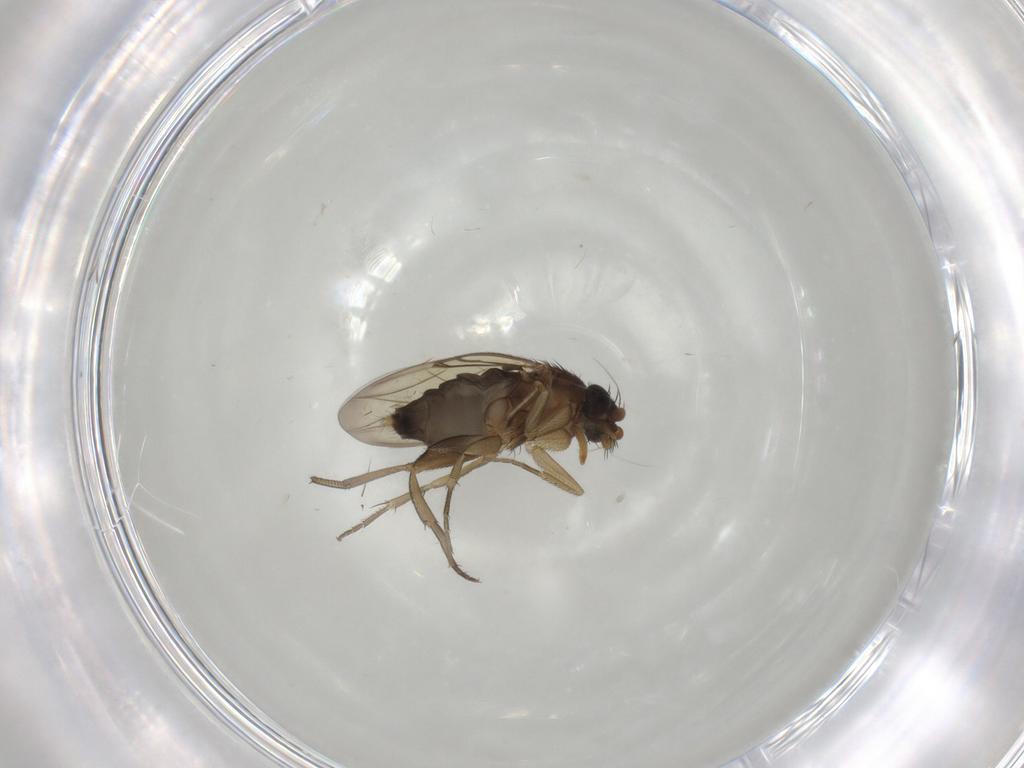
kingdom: Animalia
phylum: Arthropoda
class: Insecta
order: Diptera
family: Phoridae
